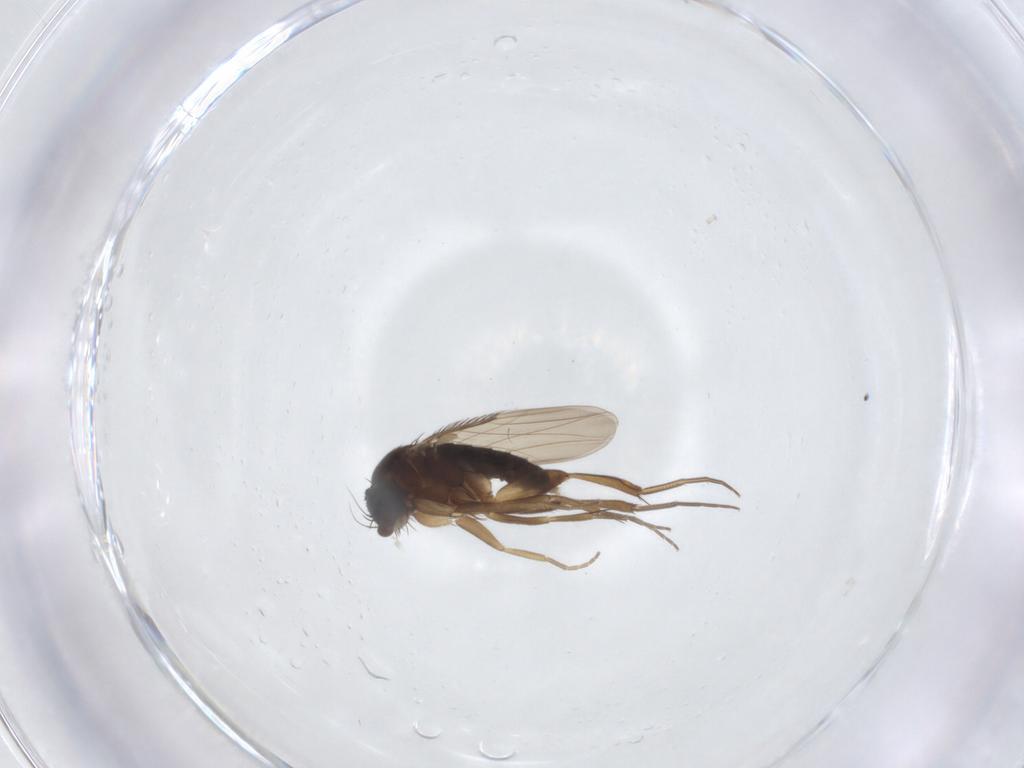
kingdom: Animalia
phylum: Arthropoda
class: Insecta
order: Diptera
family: Phoridae
